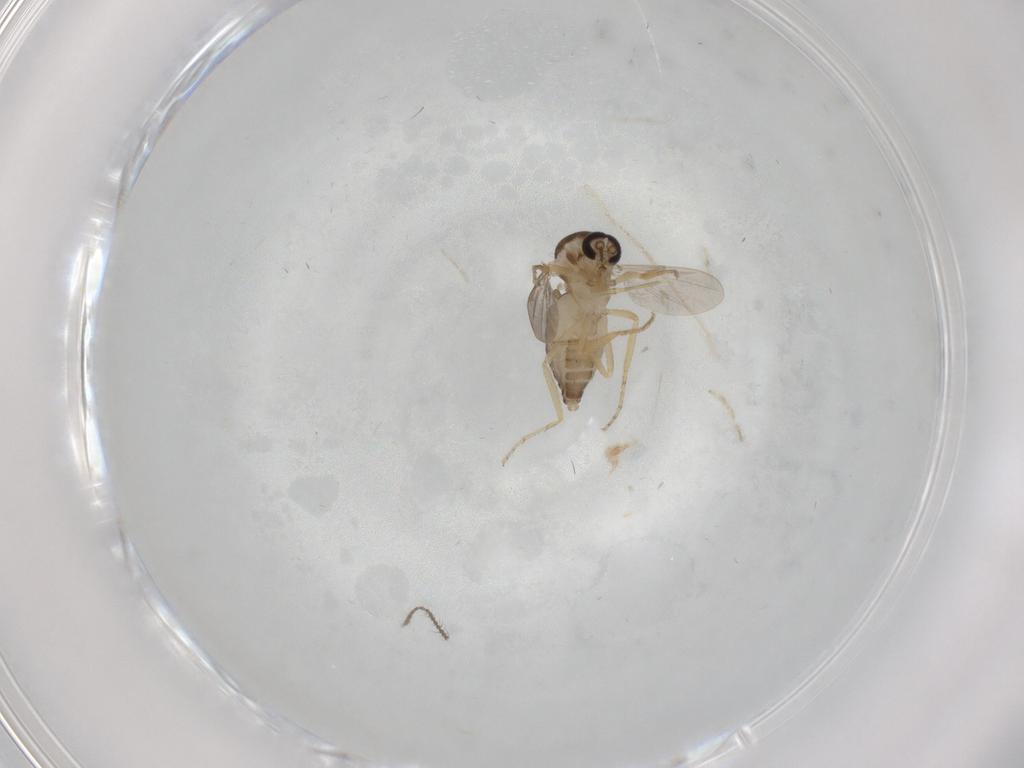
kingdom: Animalia
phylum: Arthropoda
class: Insecta
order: Diptera
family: Ceratopogonidae
